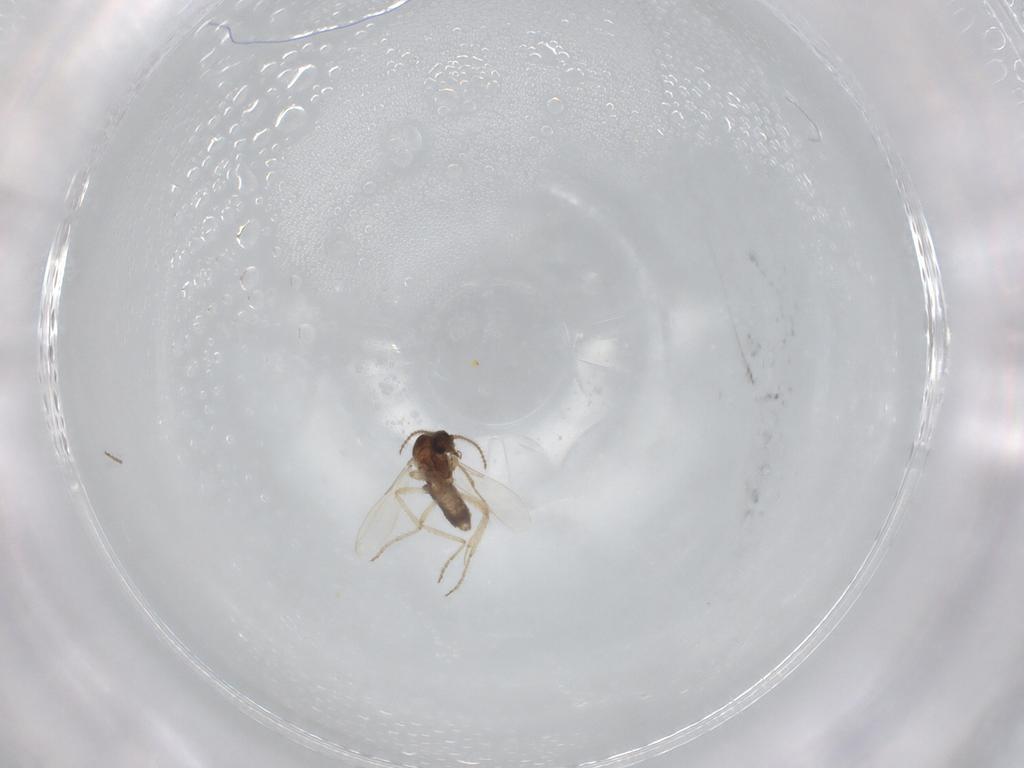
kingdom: Animalia
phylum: Arthropoda
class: Insecta
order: Diptera
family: Ceratopogonidae
